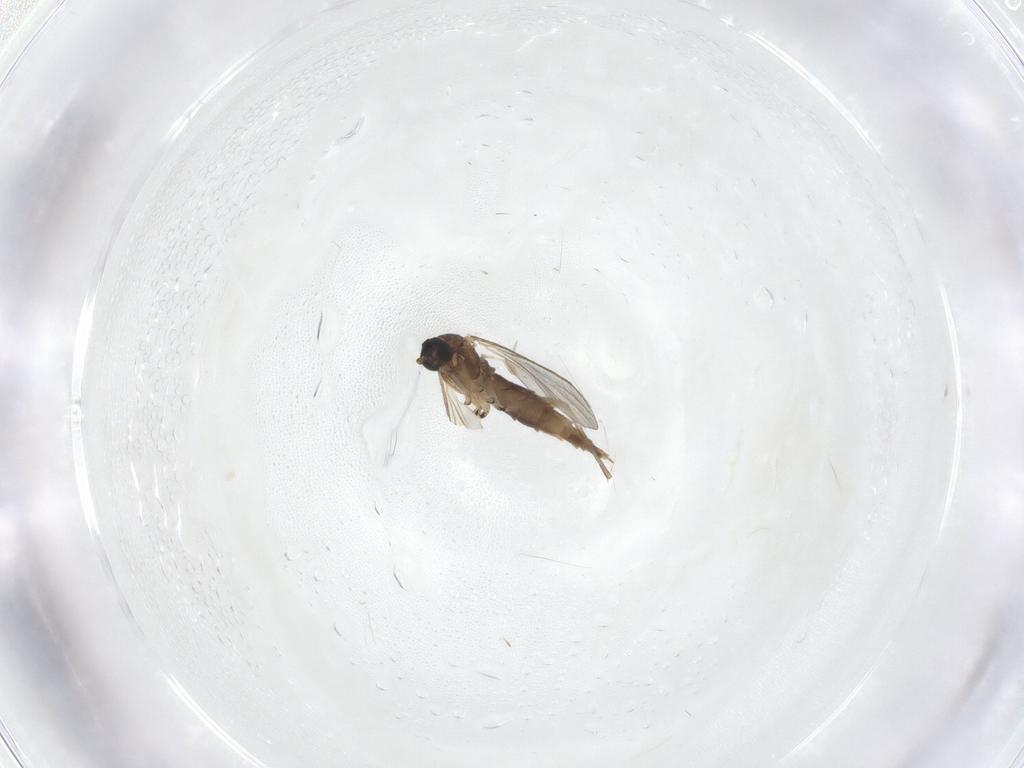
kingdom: Animalia
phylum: Arthropoda
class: Insecta
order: Diptera
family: Sciaridae
